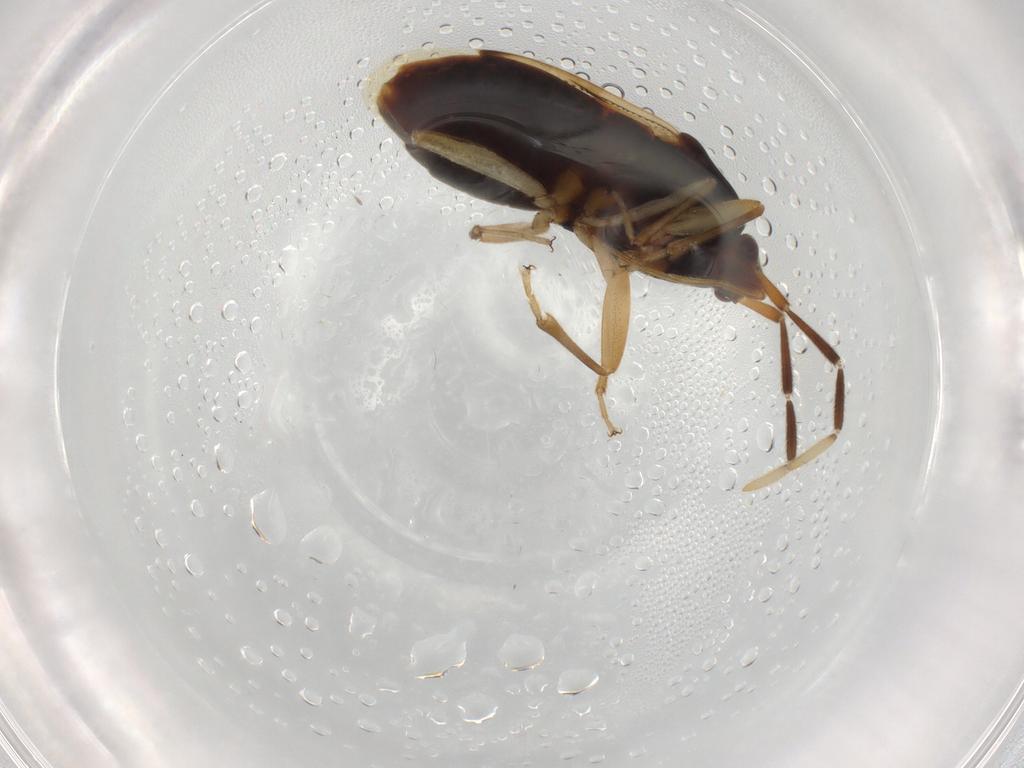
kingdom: Animalia
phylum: Arthropoda
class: Insecta
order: Hemiptera
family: Rhyparochromidae
